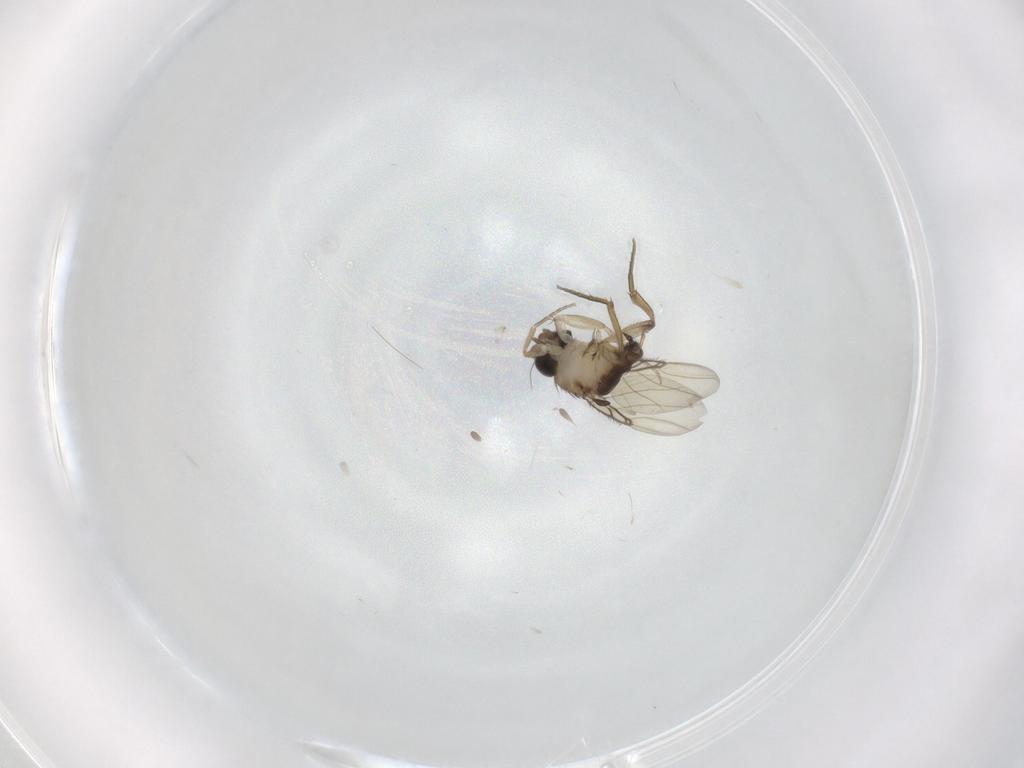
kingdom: Animalia
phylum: Arthropoda
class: Insecta
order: Diptera
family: Phoridae
